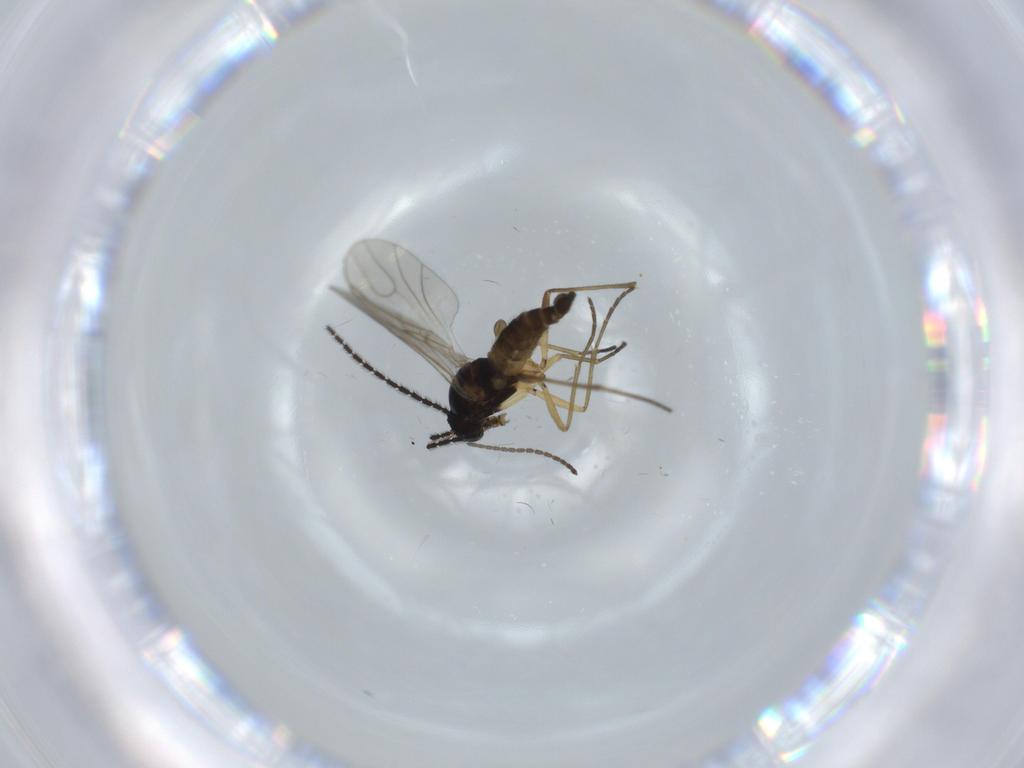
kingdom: Animalia
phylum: Arthropoda
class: Insecta
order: Diptera
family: Sciaridae
